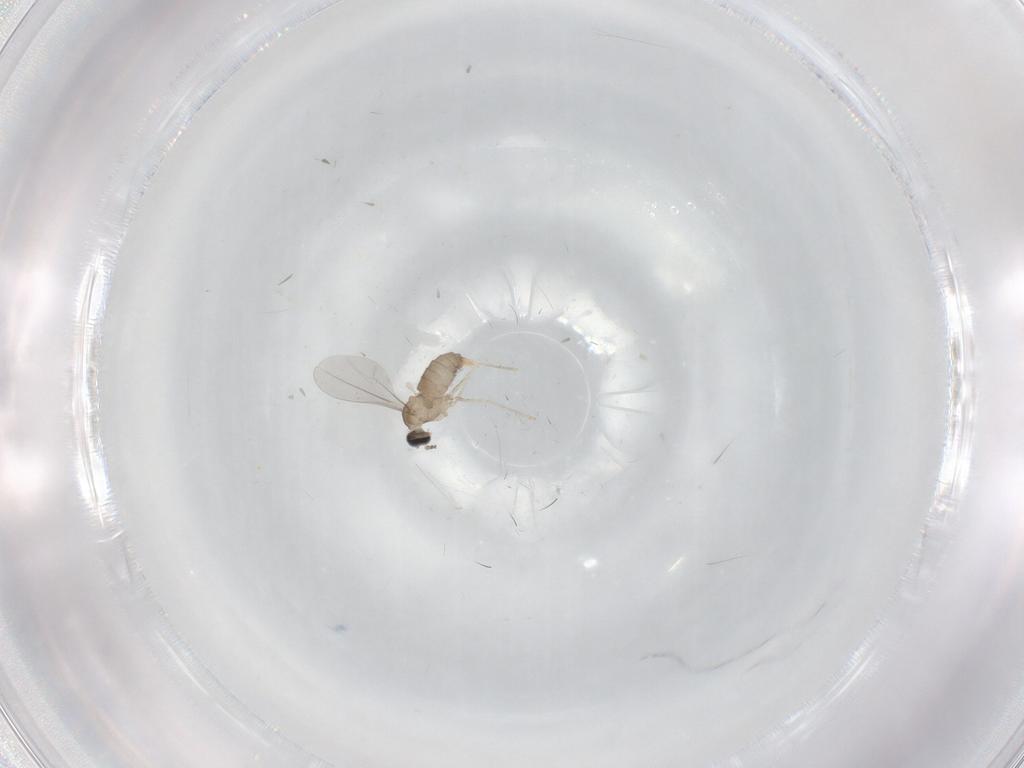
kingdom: Animalia
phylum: Arthropoda
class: Insecta
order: Diptera
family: Cecidomyiidae
